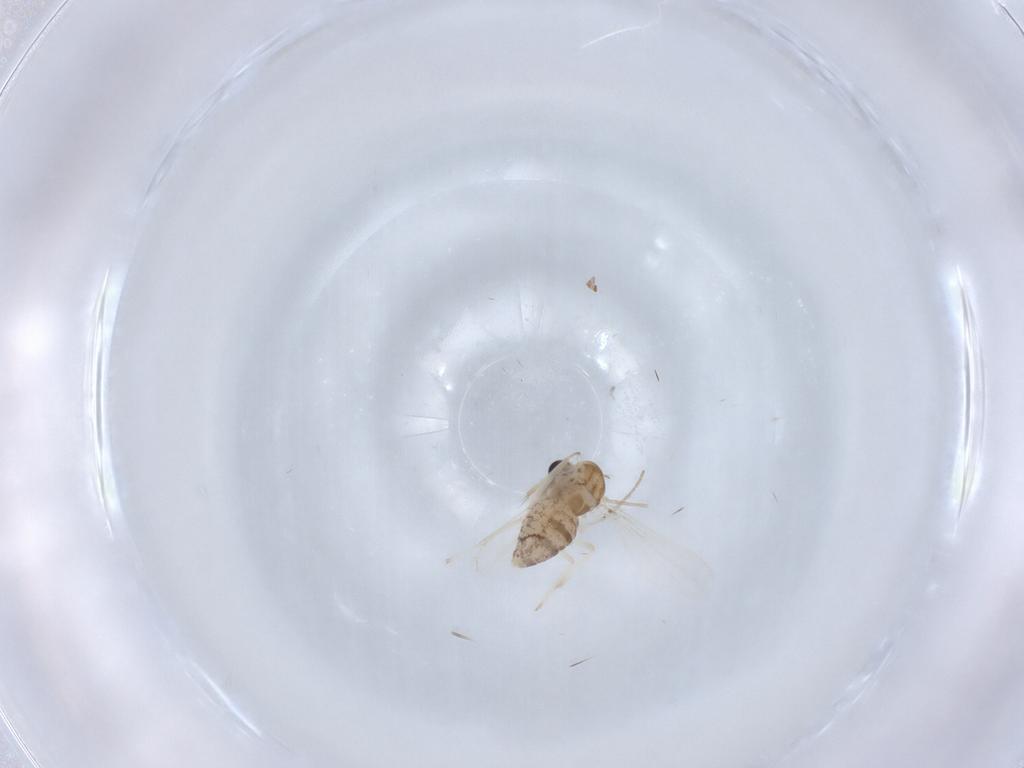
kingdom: Animalia
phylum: Arthropoda
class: Insecta
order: Diptera
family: Chironomidae
